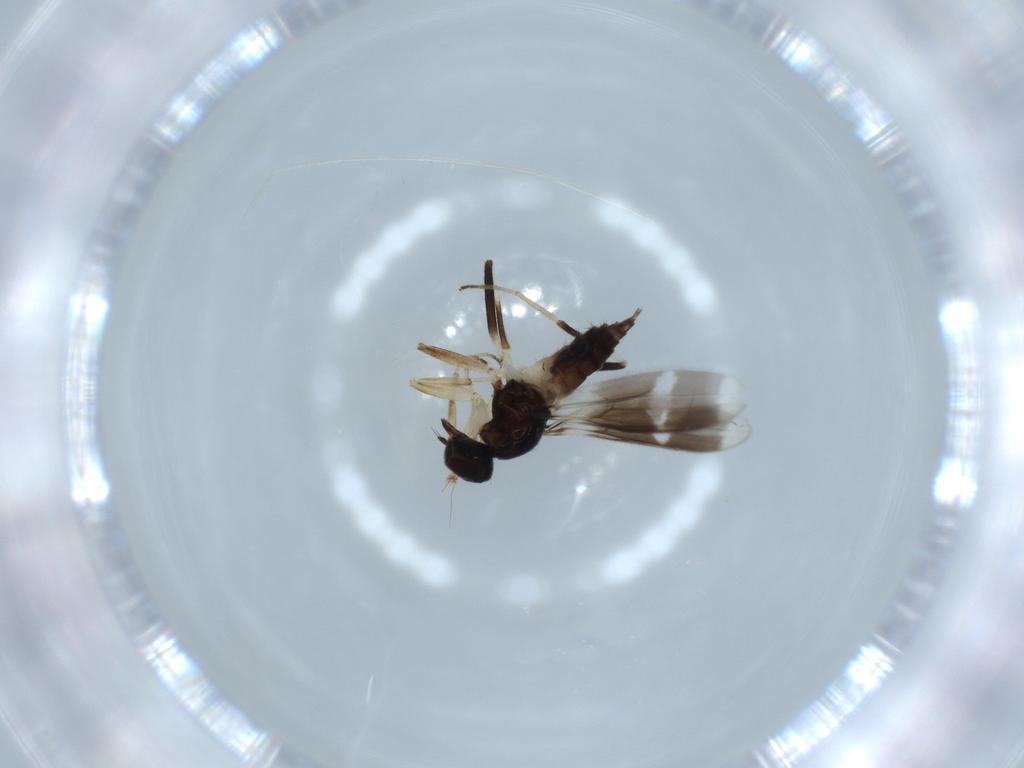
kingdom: Animalia
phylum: Arthropoda
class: Insecta
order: Diptera
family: Hybotidae
